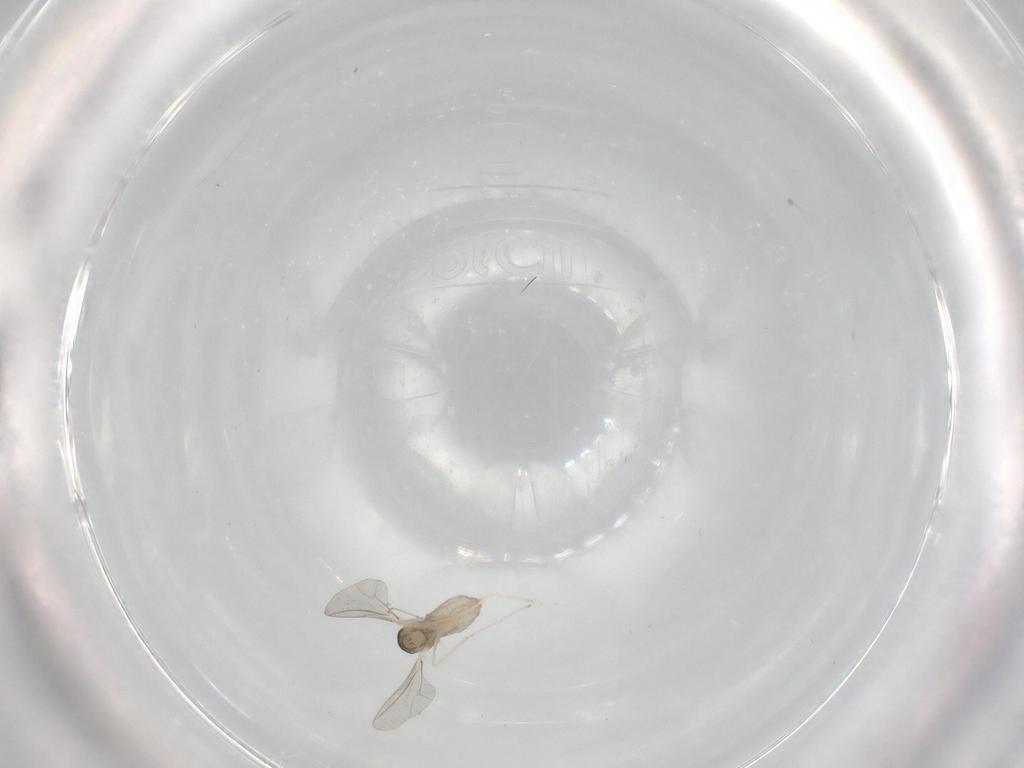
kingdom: Animalia
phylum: Arthropoda
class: Insecta
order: Diptera
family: Cecidomyiidae
